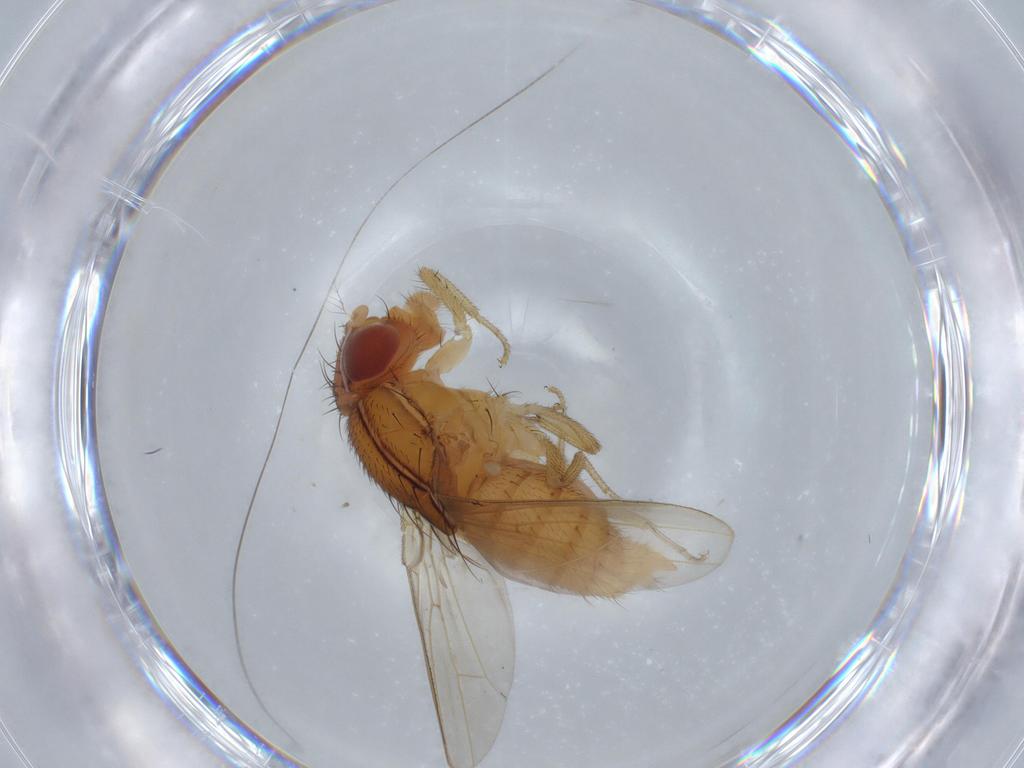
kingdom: Animalia
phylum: Arthropoda
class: Insecta
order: Diptera
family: Drosophilidae
